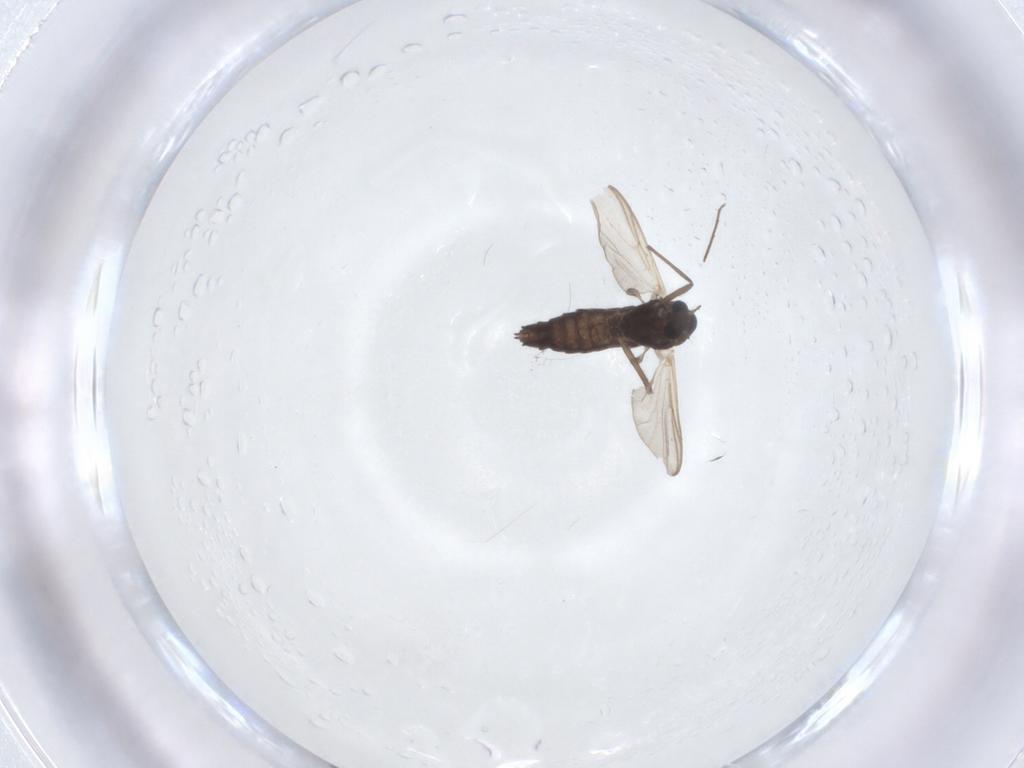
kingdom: Animalia
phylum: Arthropoda
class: Insecta
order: Diptera
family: Chironomidae
